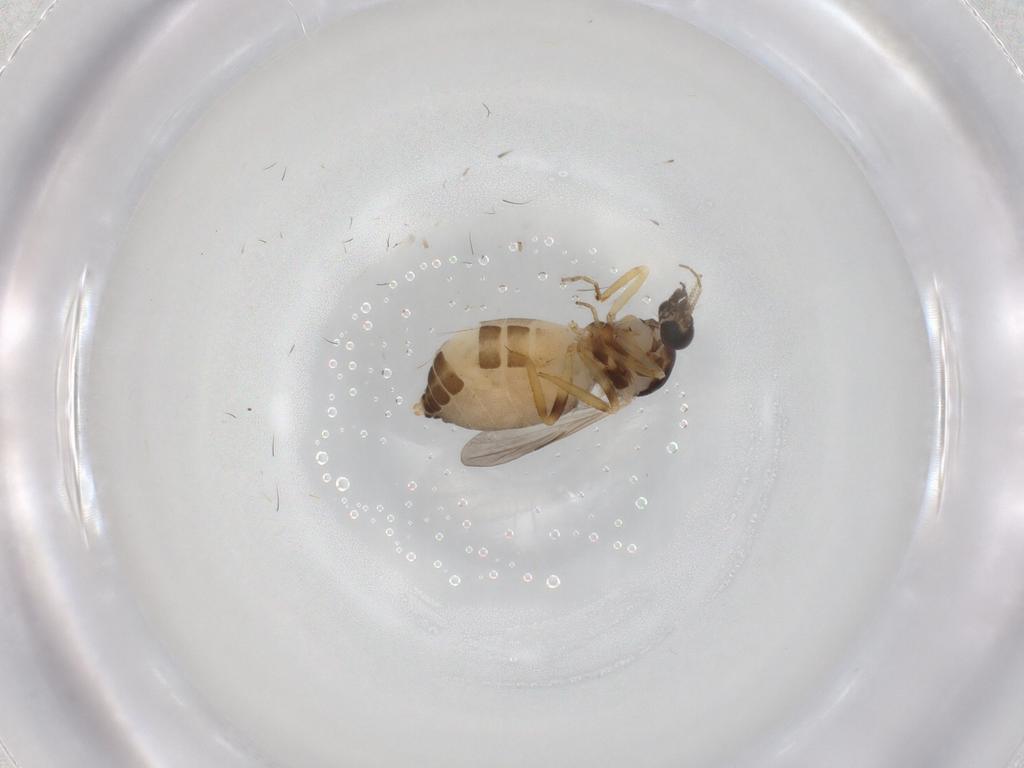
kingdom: Animalia
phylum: Arthropoda
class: Insecta
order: Diptera
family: Ceratopogonidae
